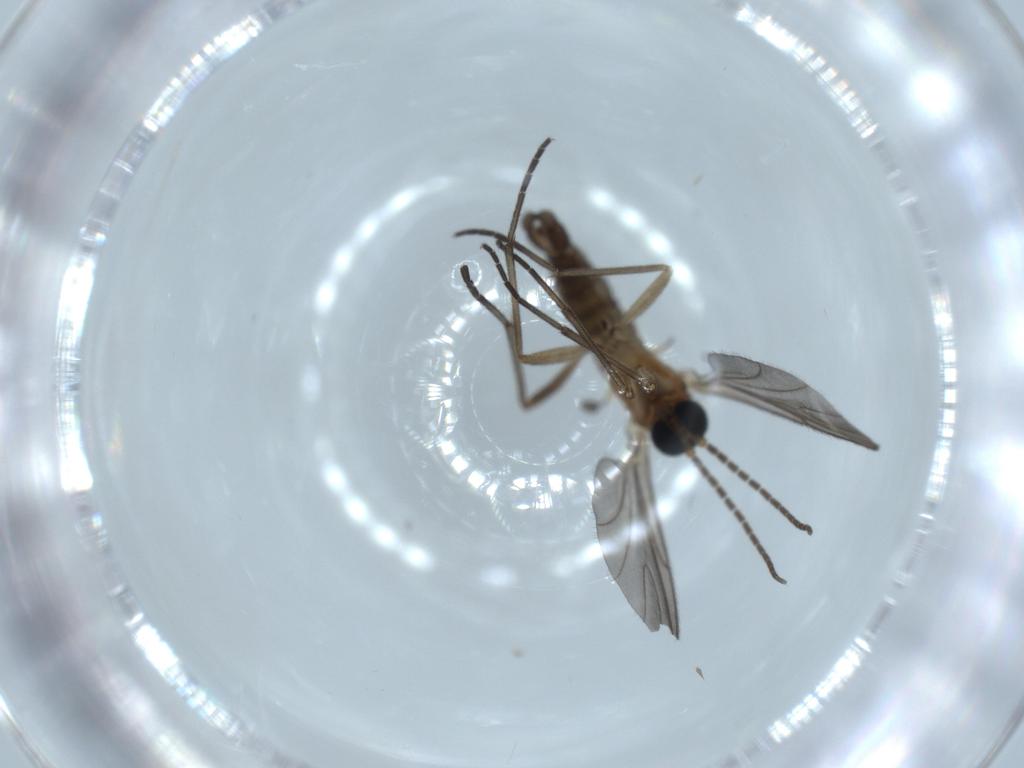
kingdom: Animalia
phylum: Arthropoda
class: Insecta
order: Diptera
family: Sciaridae
